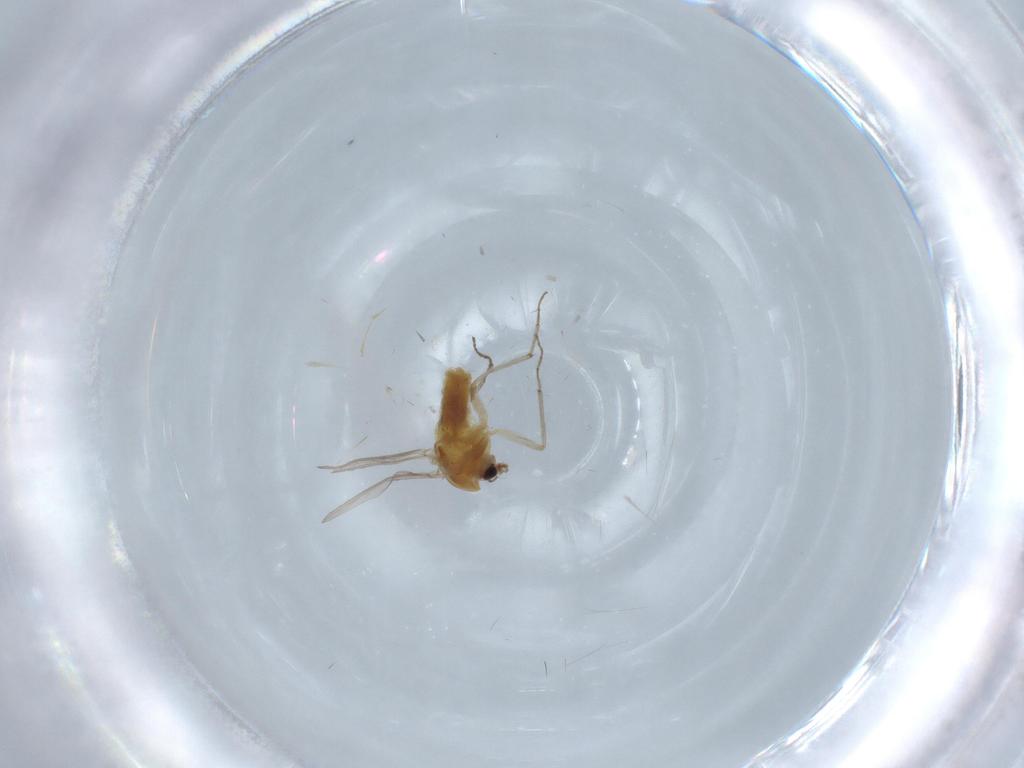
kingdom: Animalia
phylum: Arthropoda
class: Insecta
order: Diptera
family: Chironomidae
